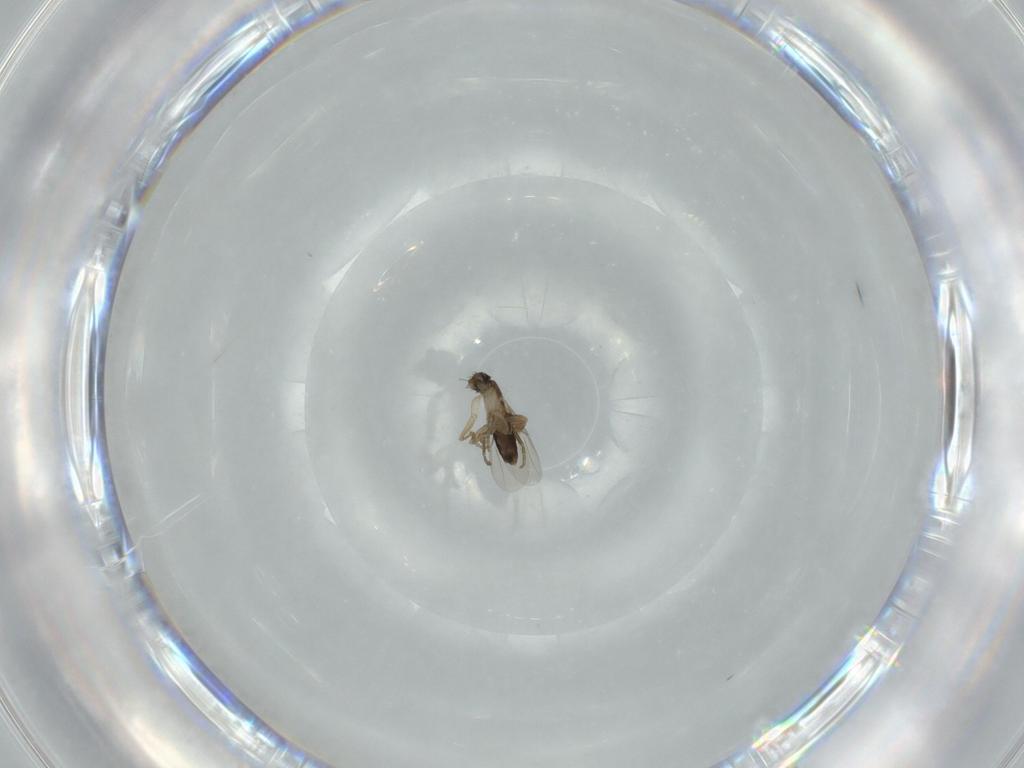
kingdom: Animalia
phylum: Arthropoda
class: Insecta
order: Diptera
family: Phoridae
